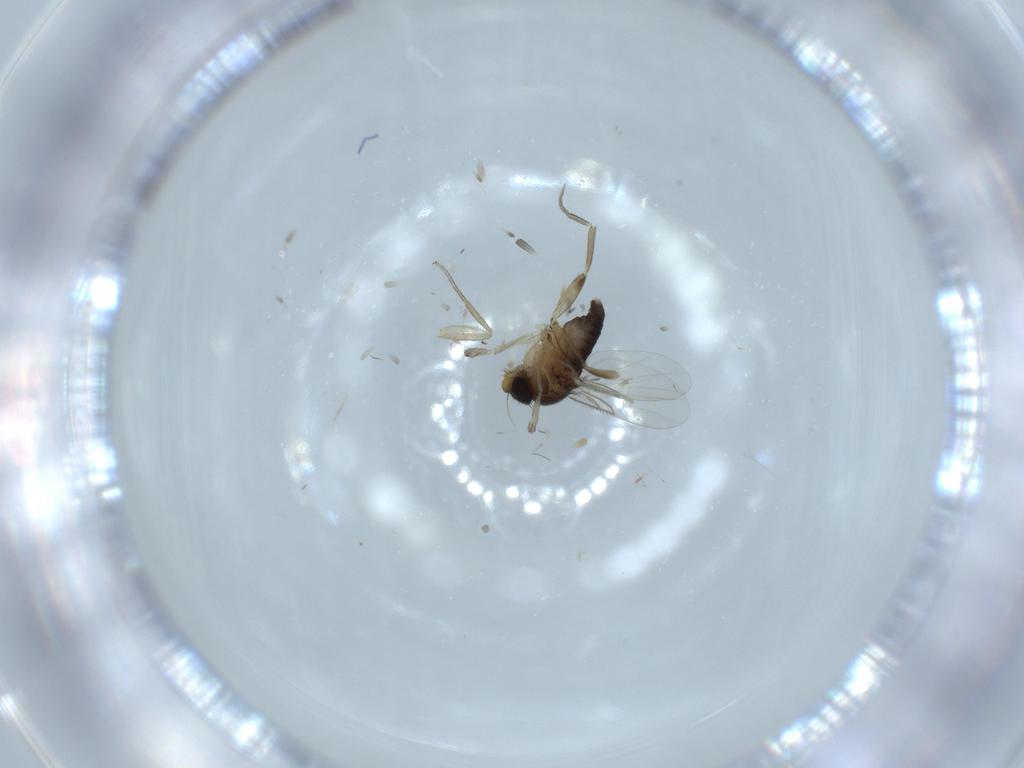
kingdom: Animalia
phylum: Arthropoda
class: Insecta
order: Diptera
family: Phoridae
